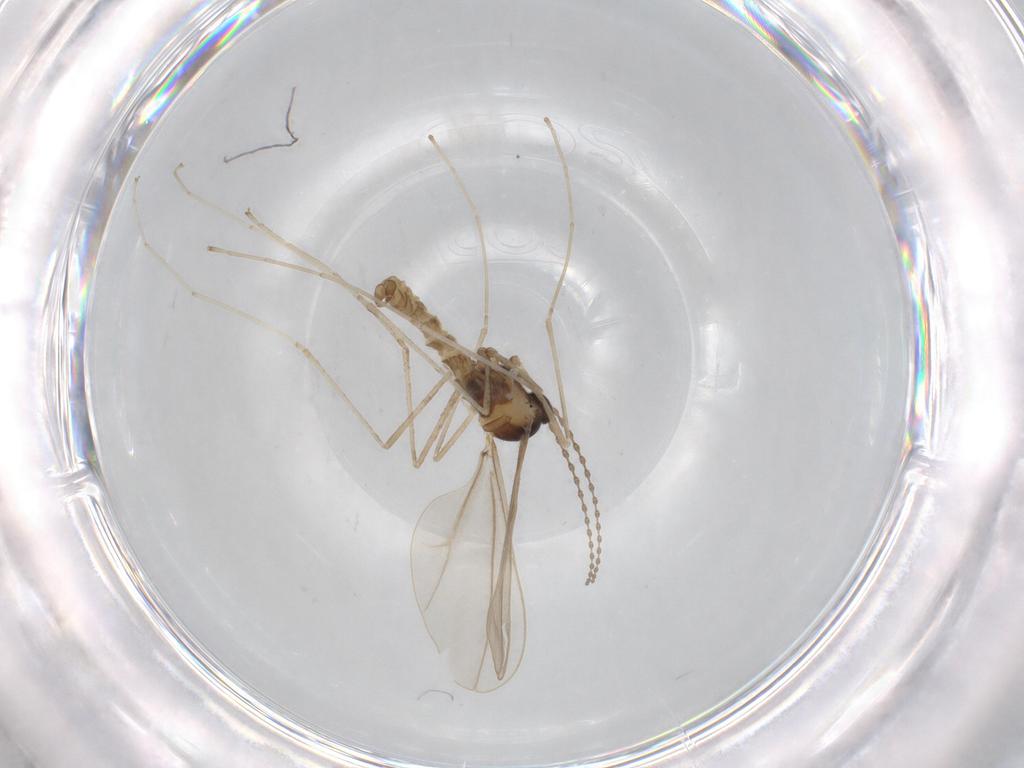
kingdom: Animalia
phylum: Arthropoda
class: Insecta
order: Diptera
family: Cecidomyiidae
